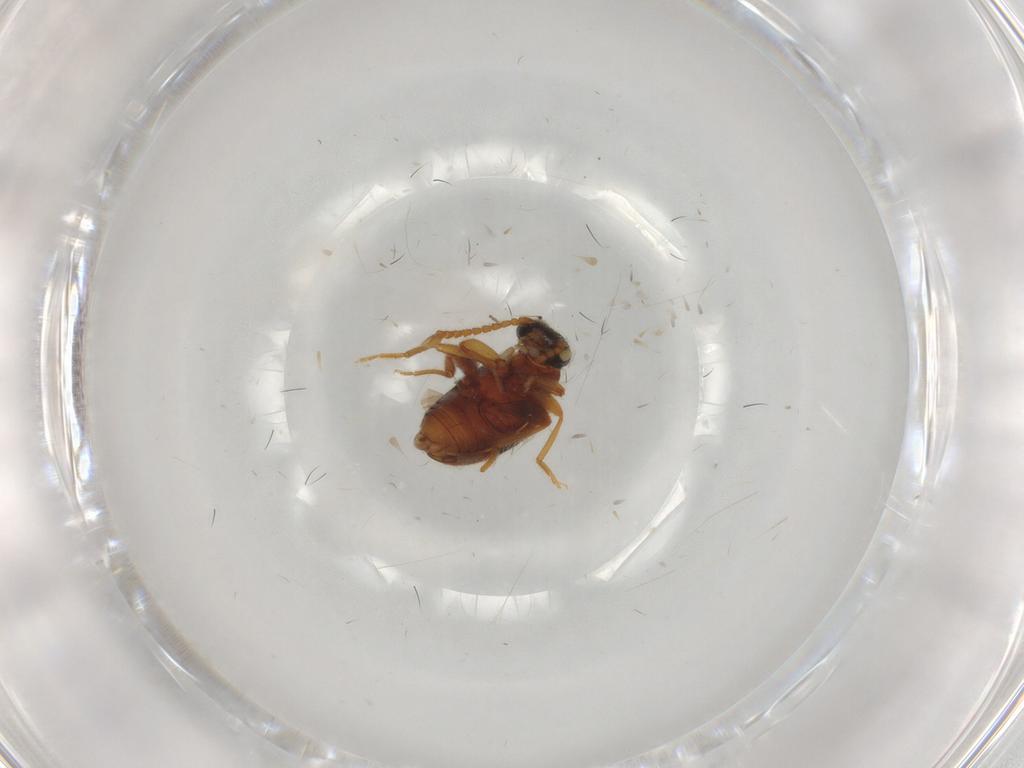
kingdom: Animalia
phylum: Arthropoda
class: Insecta
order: Coleoptera
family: Aderidae
